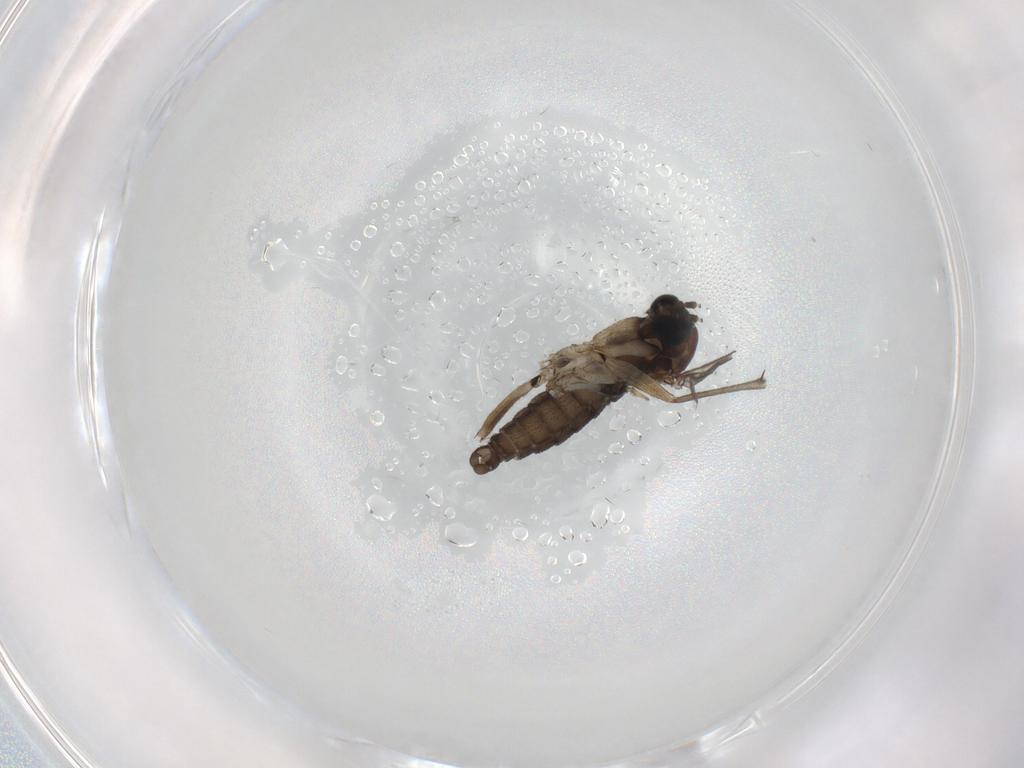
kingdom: Animalia
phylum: Arthropoda
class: Insecta
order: Diptera
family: Sciaridae
